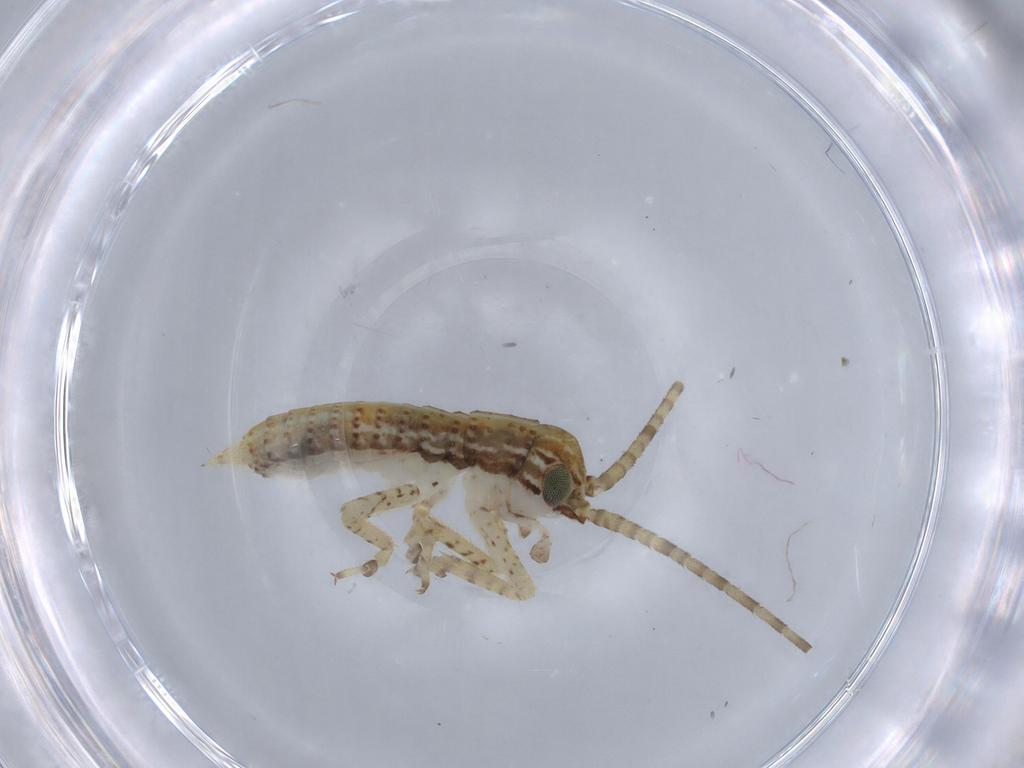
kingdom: Animalia
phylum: Arthropoda
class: Insecta
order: Orthoptera
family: Gryllidae
